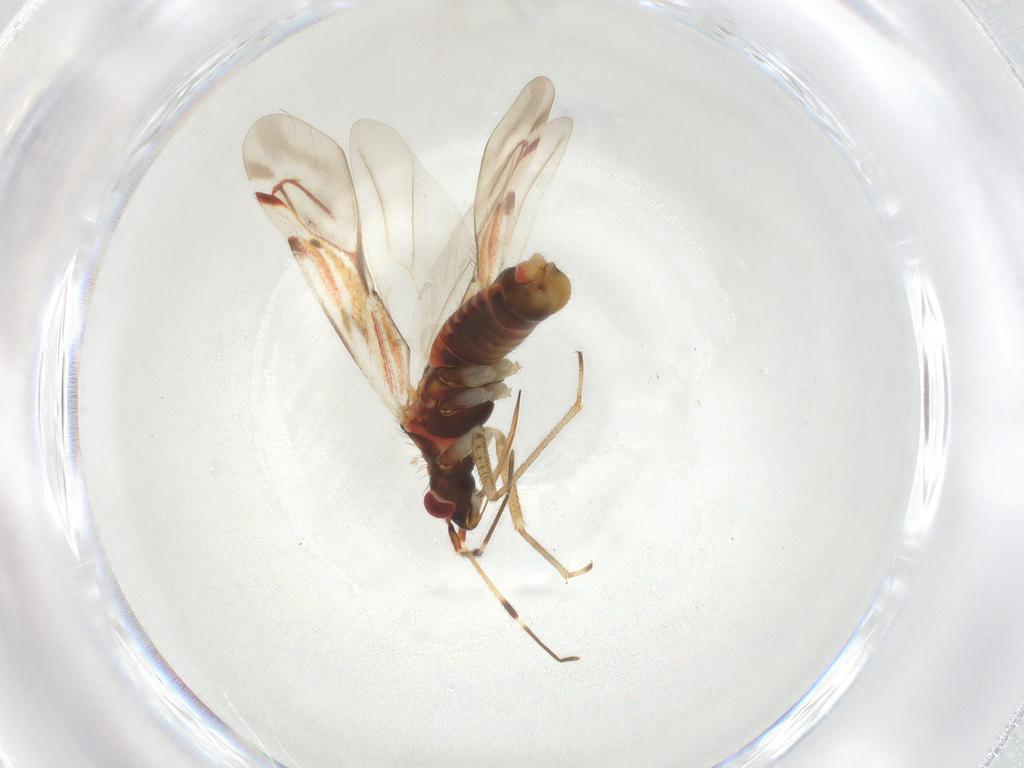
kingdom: Animalia
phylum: Arthropoda
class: Insecta
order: Hemiptera
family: Miridae
